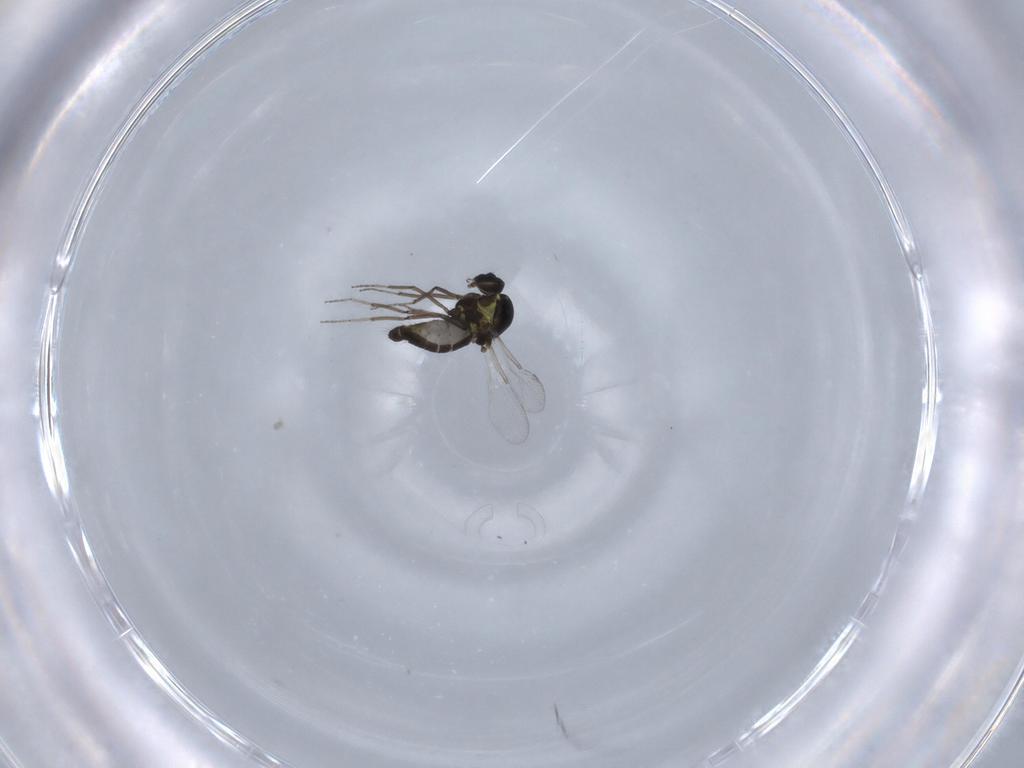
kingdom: Animalia
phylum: Arthropoda
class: Insecta
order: Diptera
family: Ceratopogonidae
